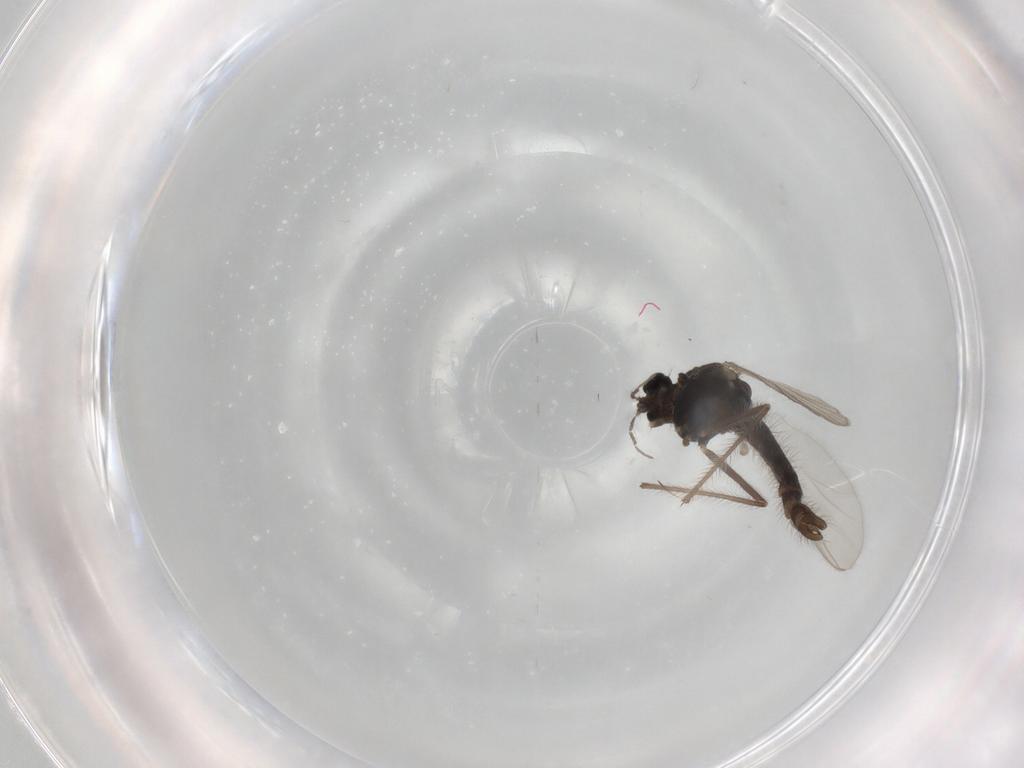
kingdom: Animalia
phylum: Arthropoda
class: Insecta
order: Diptera
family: Chironomidae
